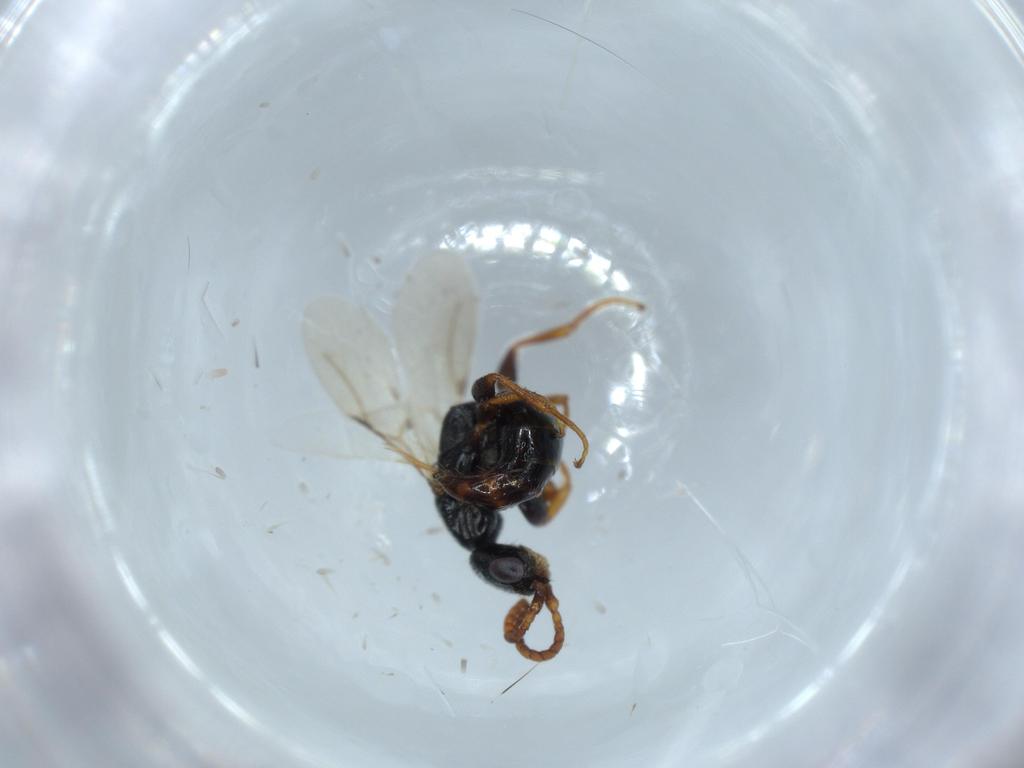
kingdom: Animalia
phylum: Arthropoda
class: Insecta
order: Hymenoptera
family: Bethylidae
